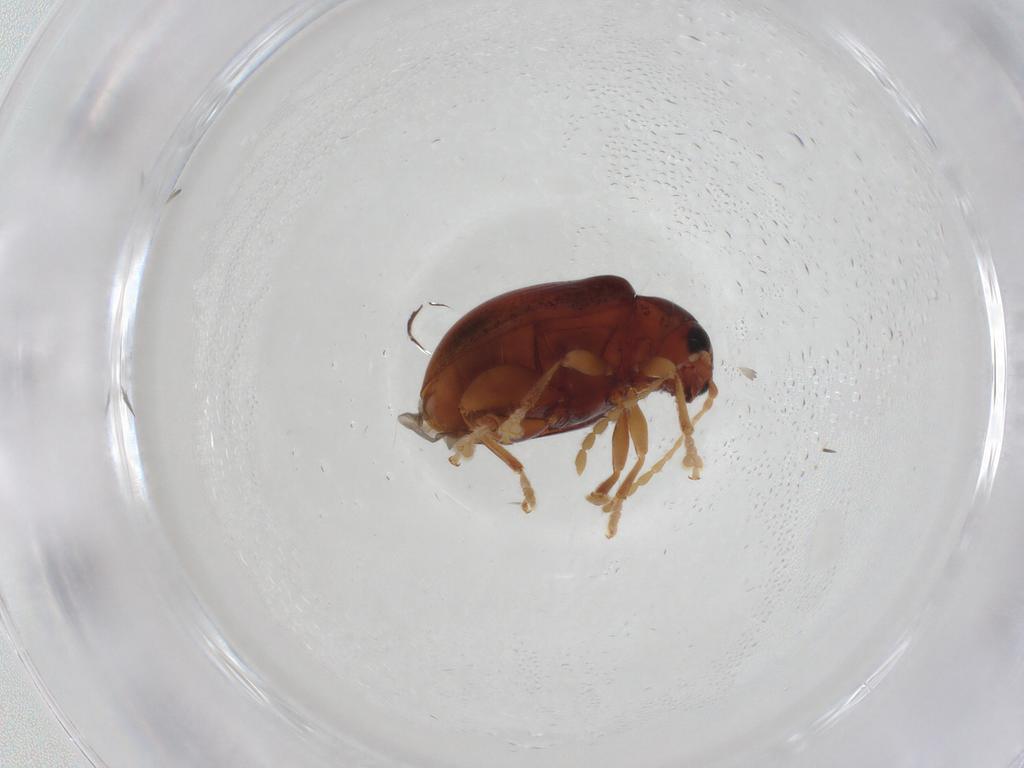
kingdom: Animalia
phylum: Arthropoda
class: Insecta
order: Coleoptera
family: Chrysomelidae
